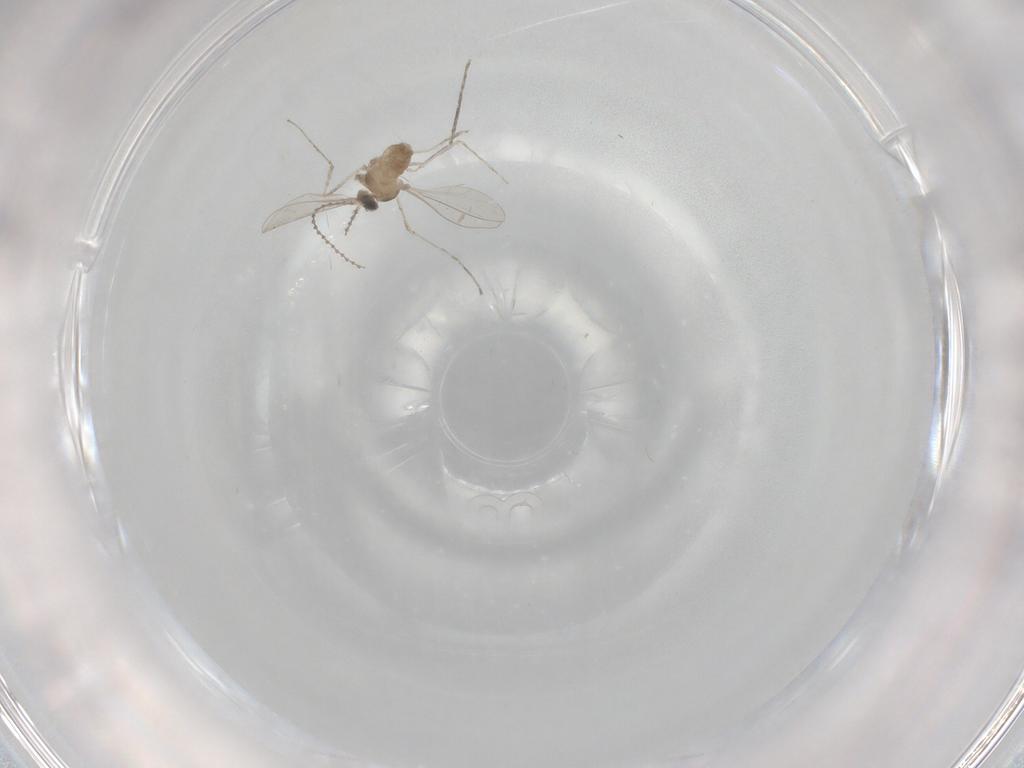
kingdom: Animalia
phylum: Arthropoda
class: Insecta
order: Diptera
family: Cecidomyiidae
